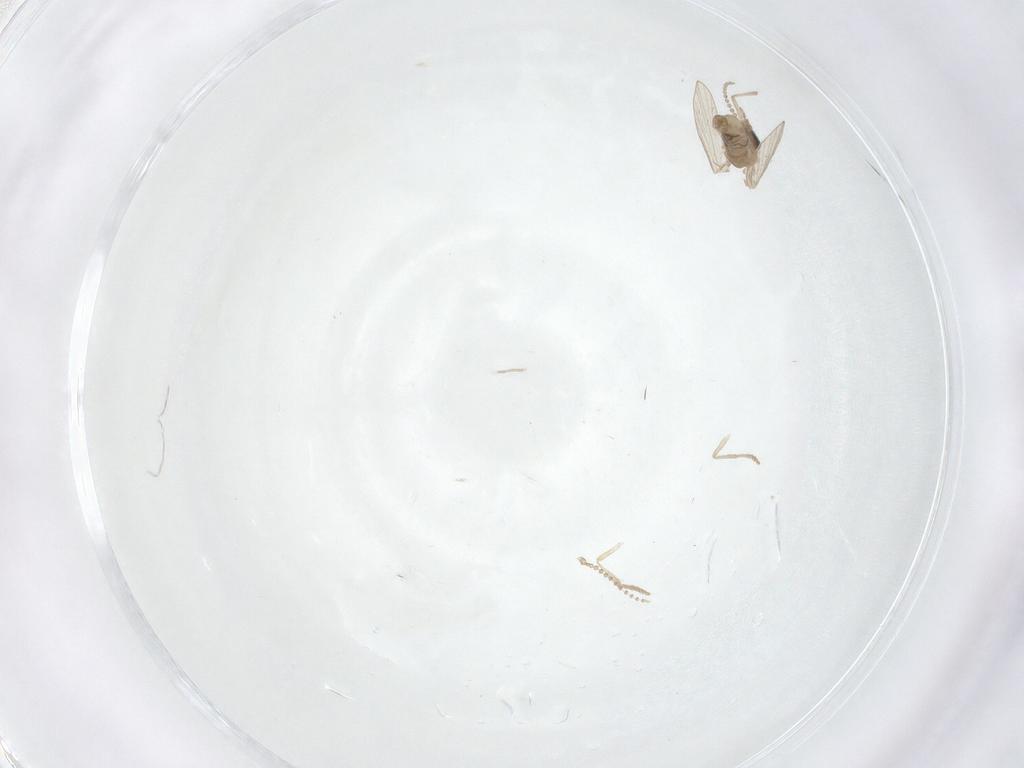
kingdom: Animalia
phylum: Arthropoda
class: Insecta
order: Diptera
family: Psychodidae
